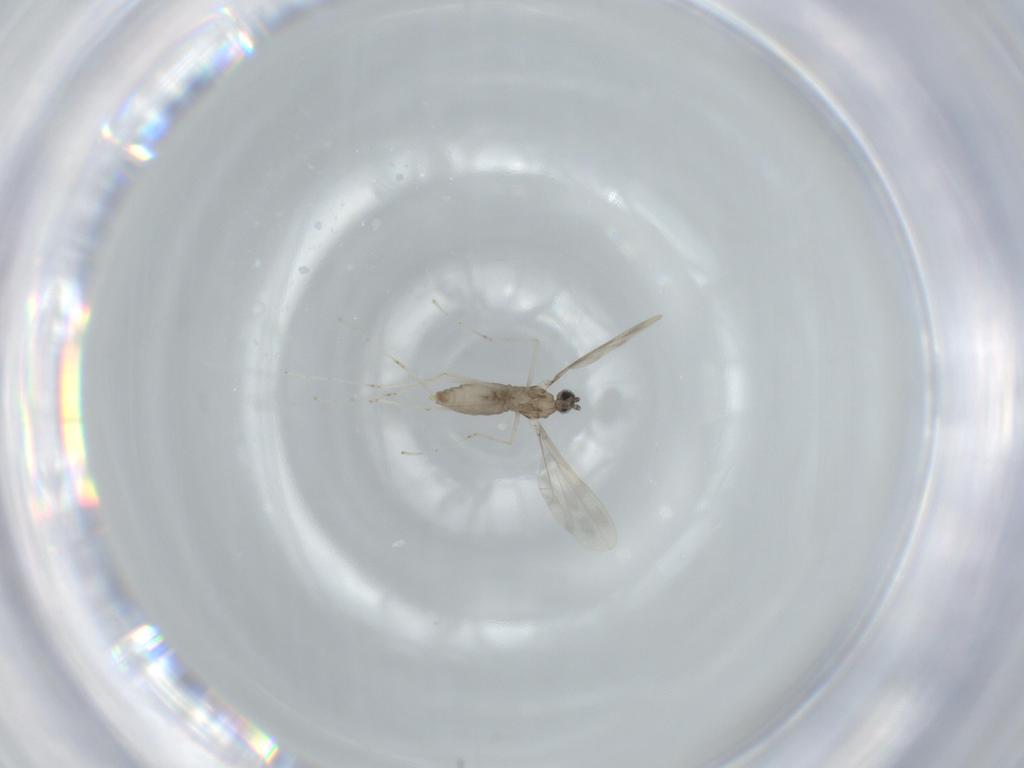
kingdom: Animalia
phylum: Arthropoda
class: Insecta
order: Diptera
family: Cecidomyiidae
